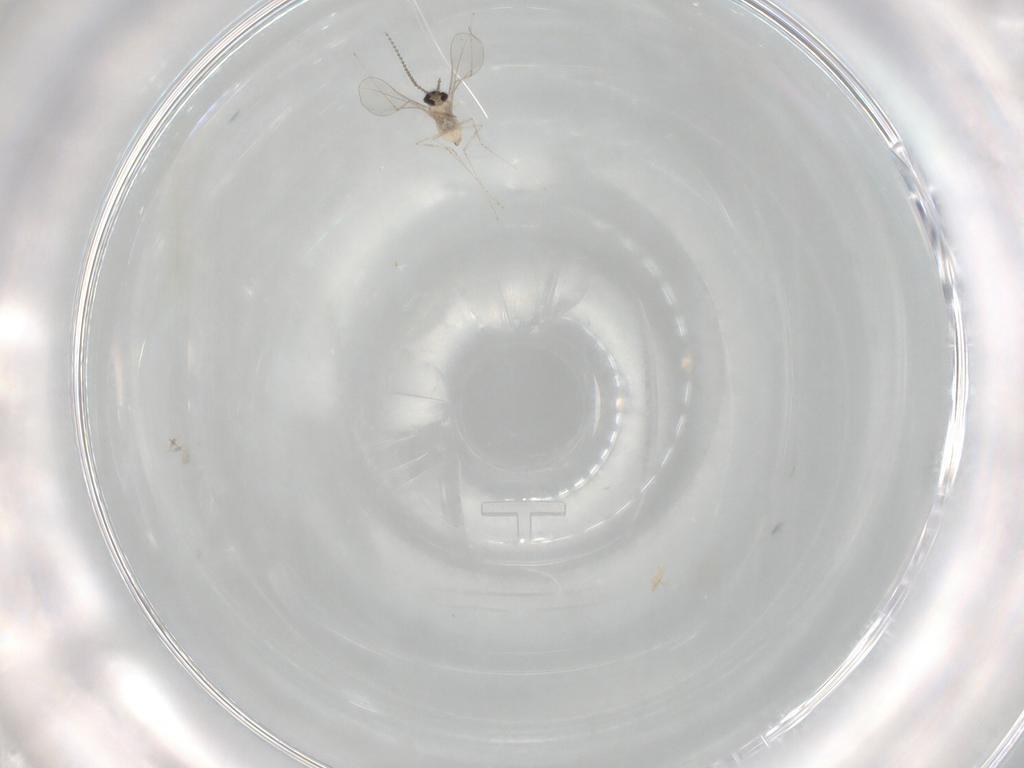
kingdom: Animalia
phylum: Arthropoda
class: Insecta
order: Diptera
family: Cecidomyiidae
